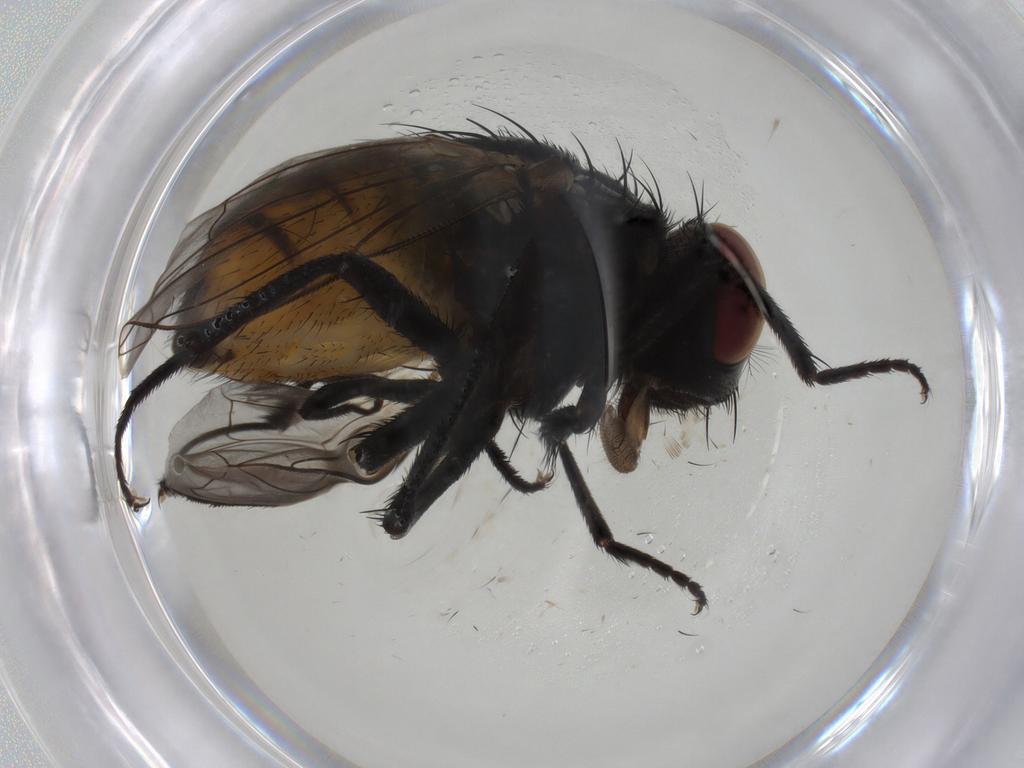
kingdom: Animalia
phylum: Arthropoda
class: Insecta
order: Diptera
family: Muscidae
